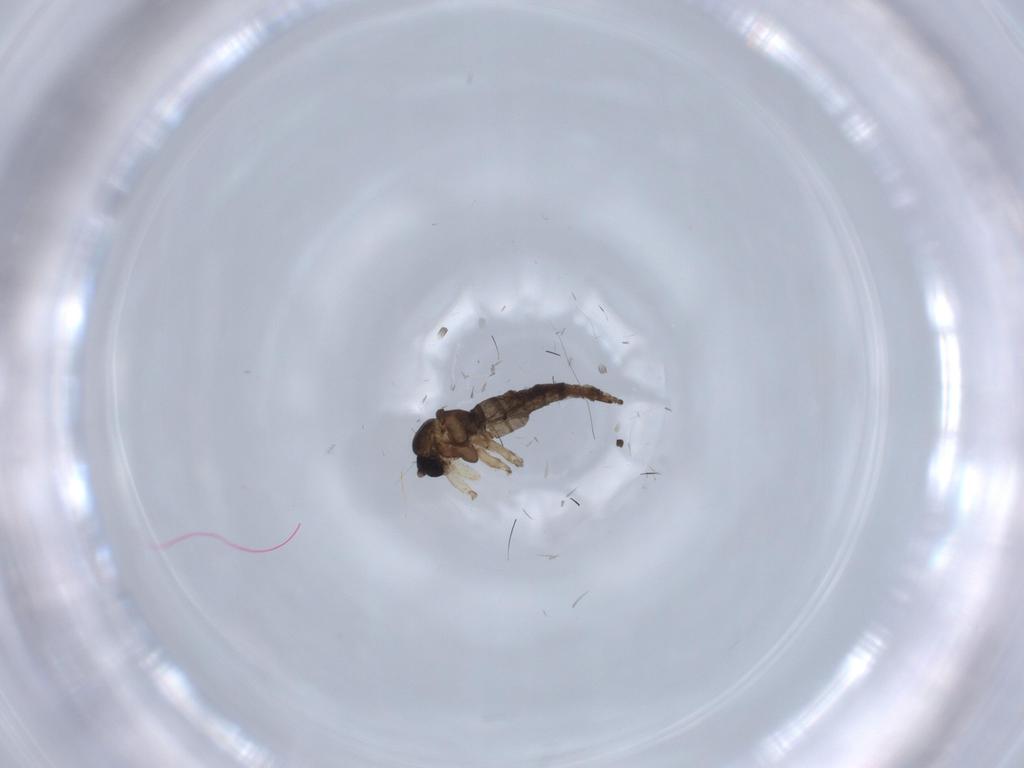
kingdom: Animalia
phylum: Arthropoda
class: Insecta
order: Diptera
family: Sciaridae
